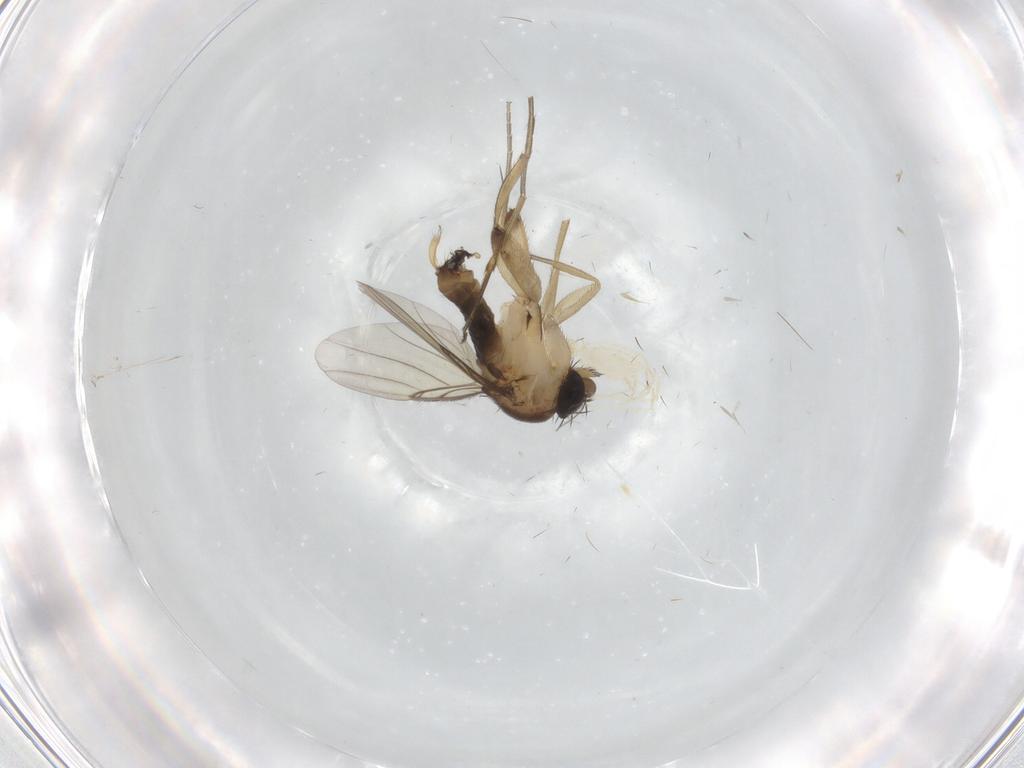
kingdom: Animalia
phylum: Arthropoda
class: Insecta
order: Diptera
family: Phoridae
